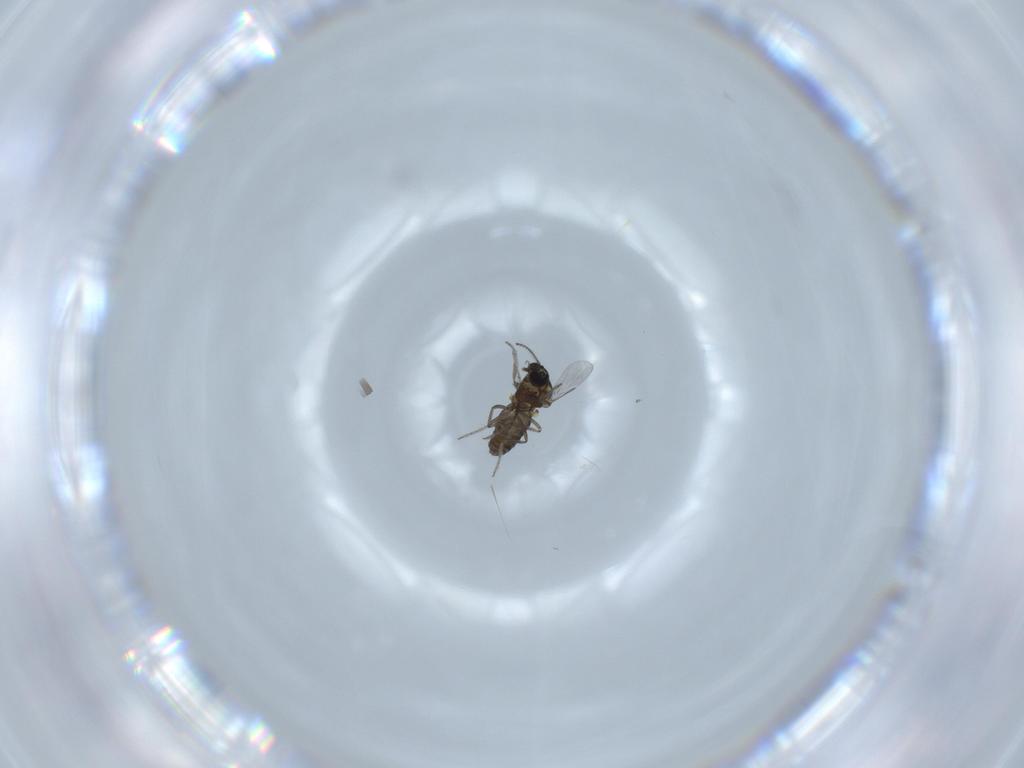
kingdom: Animalia
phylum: Arthropoda
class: Insecta
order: Diptera
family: Ceratopogonidae
